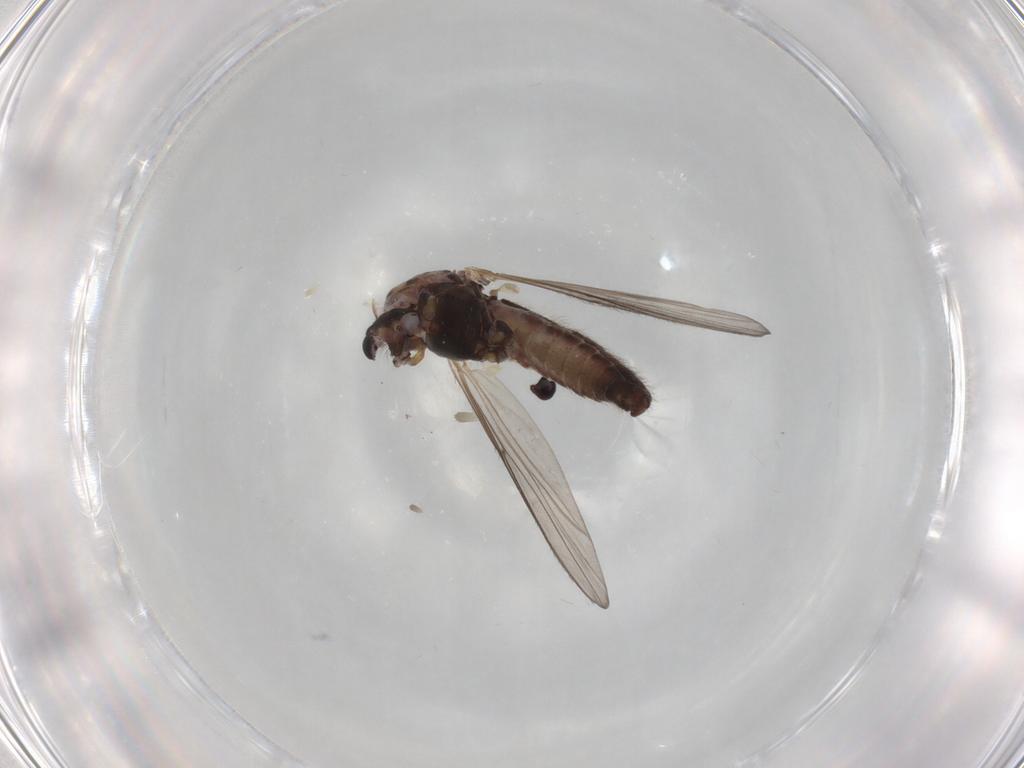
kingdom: Animalia
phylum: Arthropoda
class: Insecta
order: Diptera
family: Chironomidae
